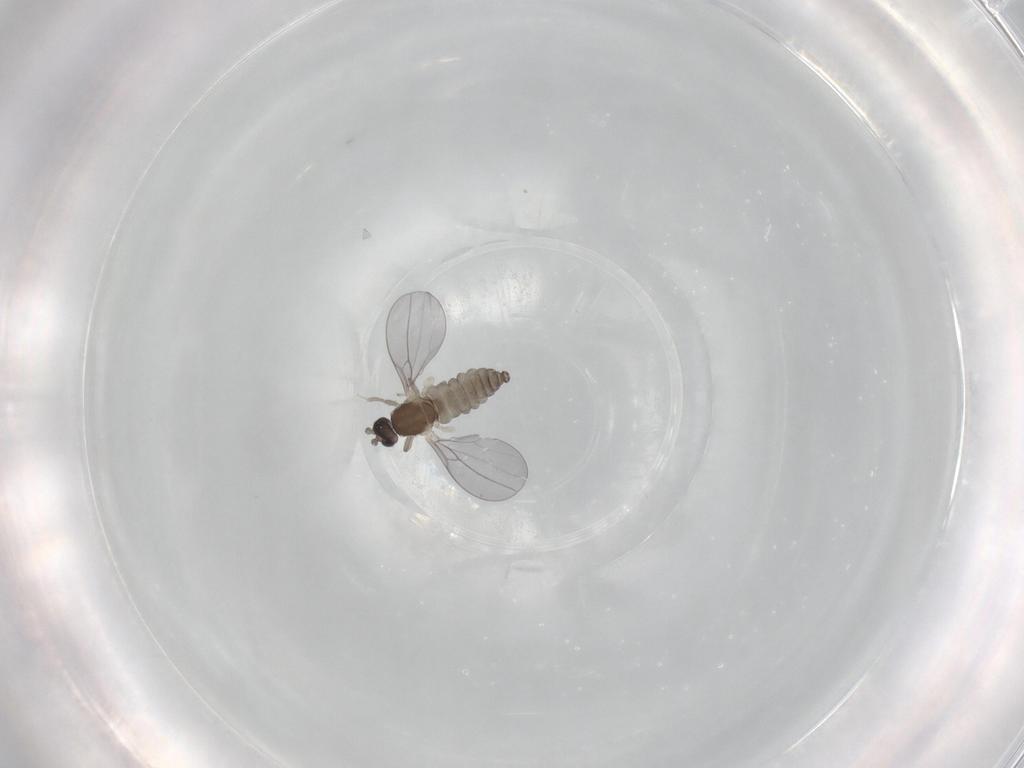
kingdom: Animalia
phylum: Arthropoda
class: Insecta
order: Diptera
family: Cecidomyiidae
